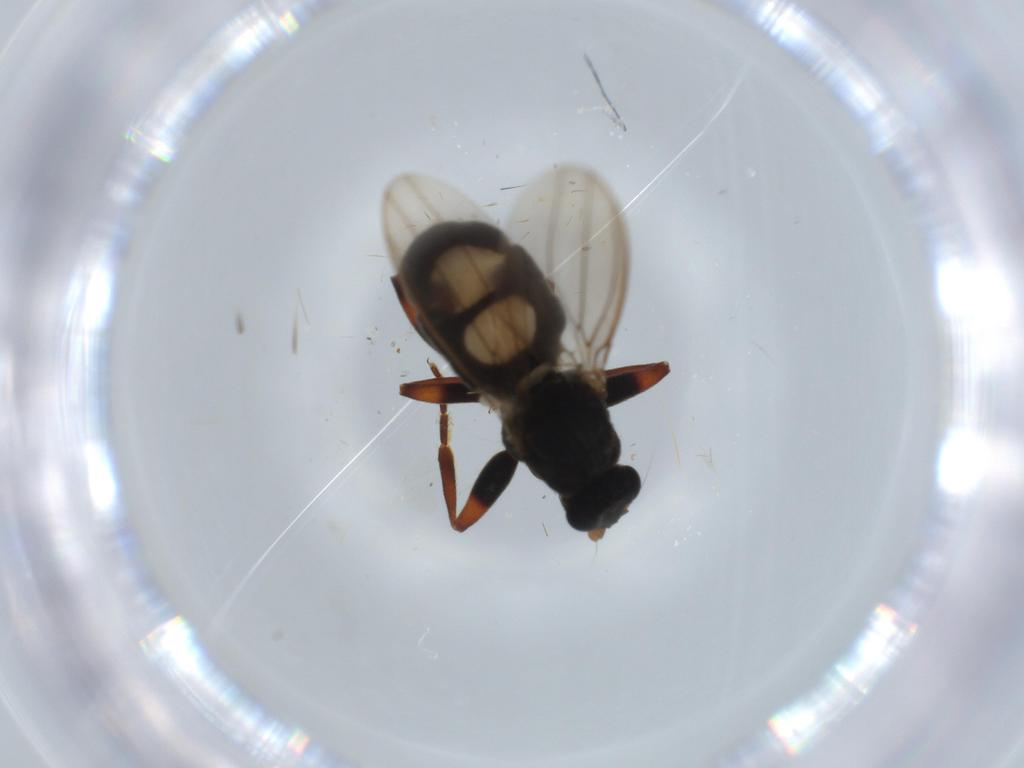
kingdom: Animalia
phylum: Arthropoda
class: Insecta
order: Diptera
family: Sphaeroceridae
